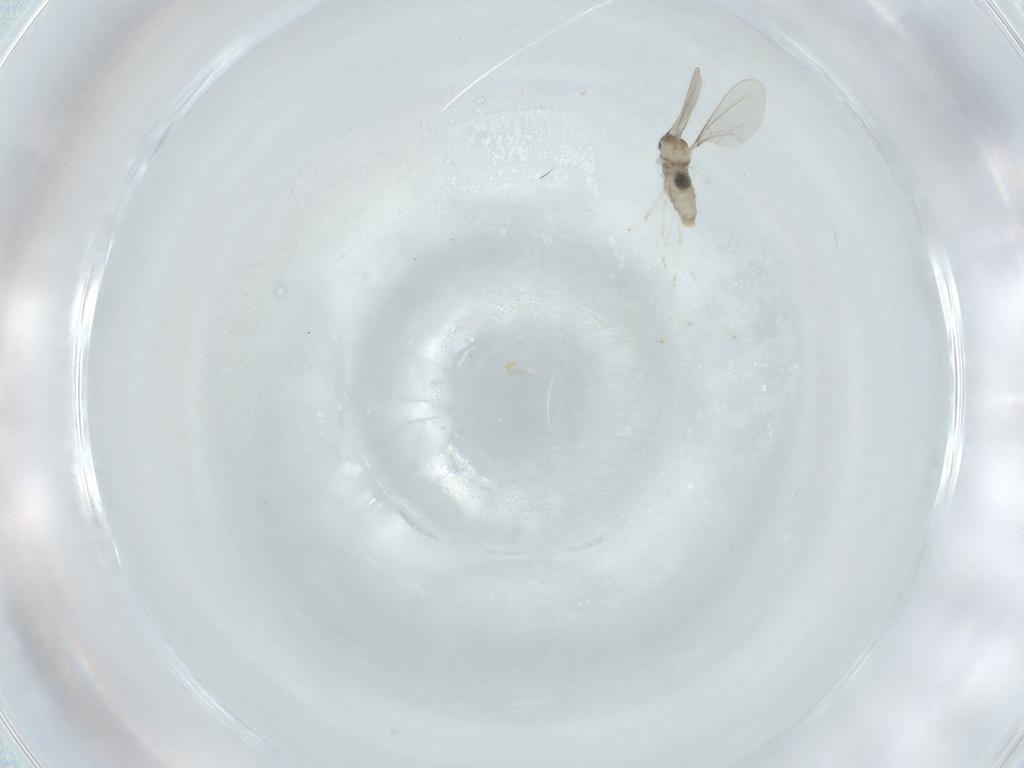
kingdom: Animalia
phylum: Arthropoda
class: Insecta
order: Diptera
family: Cecidomyiidae
